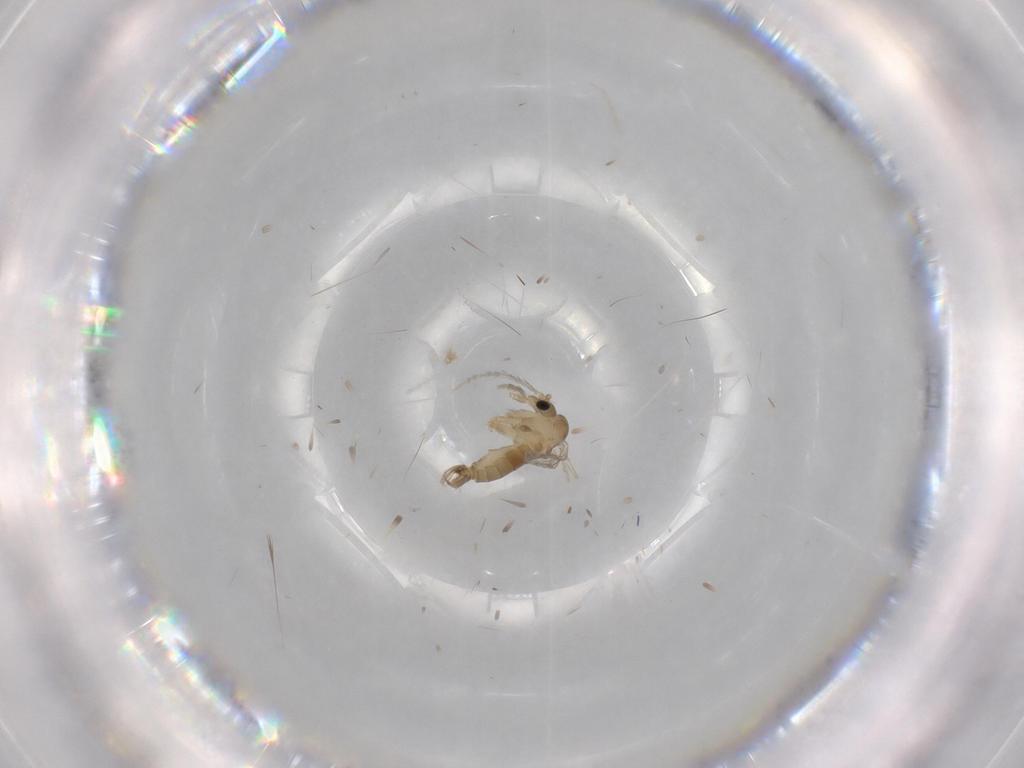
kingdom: Animalia
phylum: Arthropoda
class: Insecta
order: Diptera
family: Psychodidae
